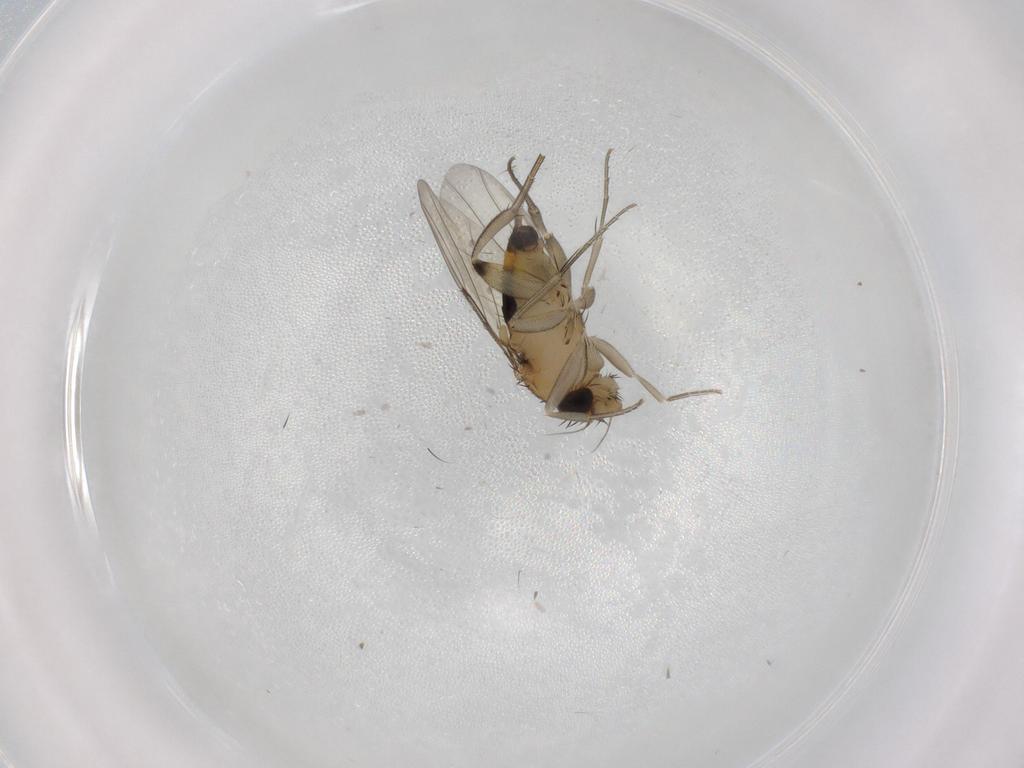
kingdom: Animalia
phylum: Arthropoda
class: Insecta
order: Diptera
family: Phoridae
